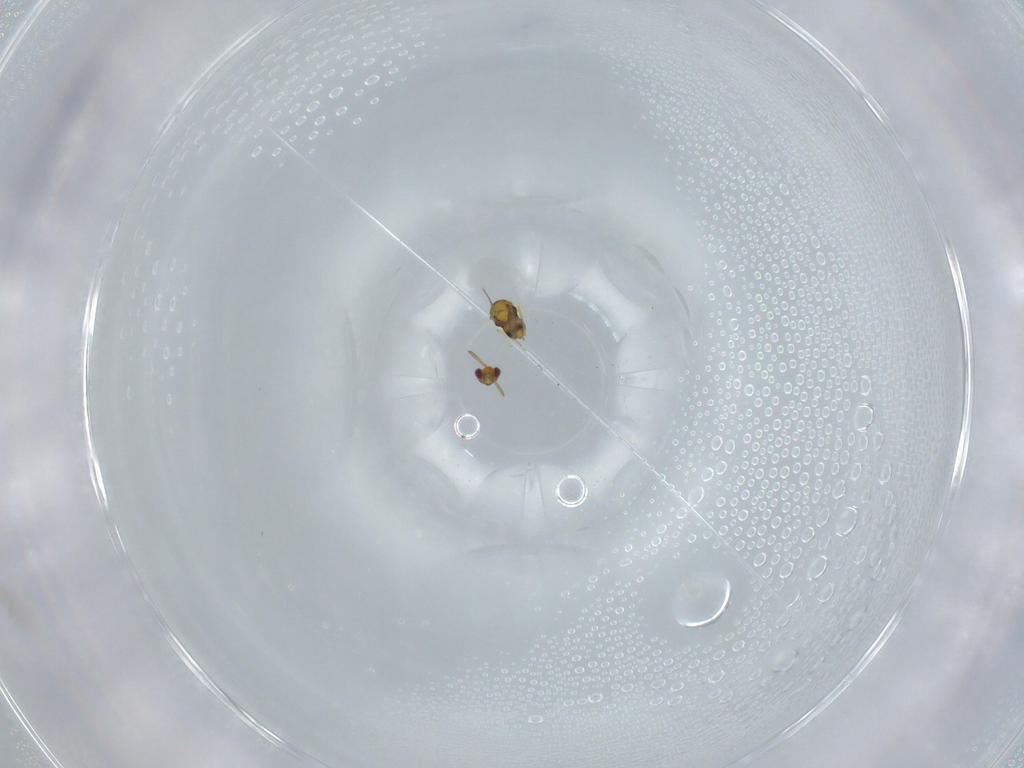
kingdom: Animalia
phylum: Arthropoda
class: Insecta
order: Hymenoptera
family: Aphelinidae
